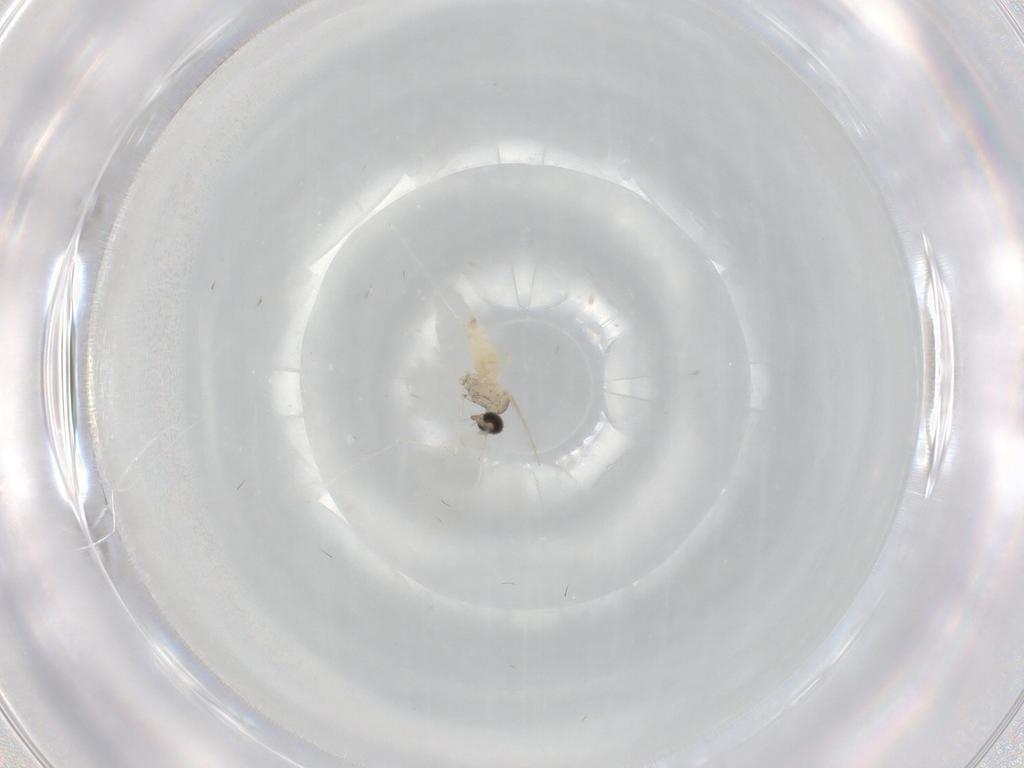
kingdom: Animalia
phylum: Arthropoda
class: Insecta
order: Diptera
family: Cecidomyiidae
